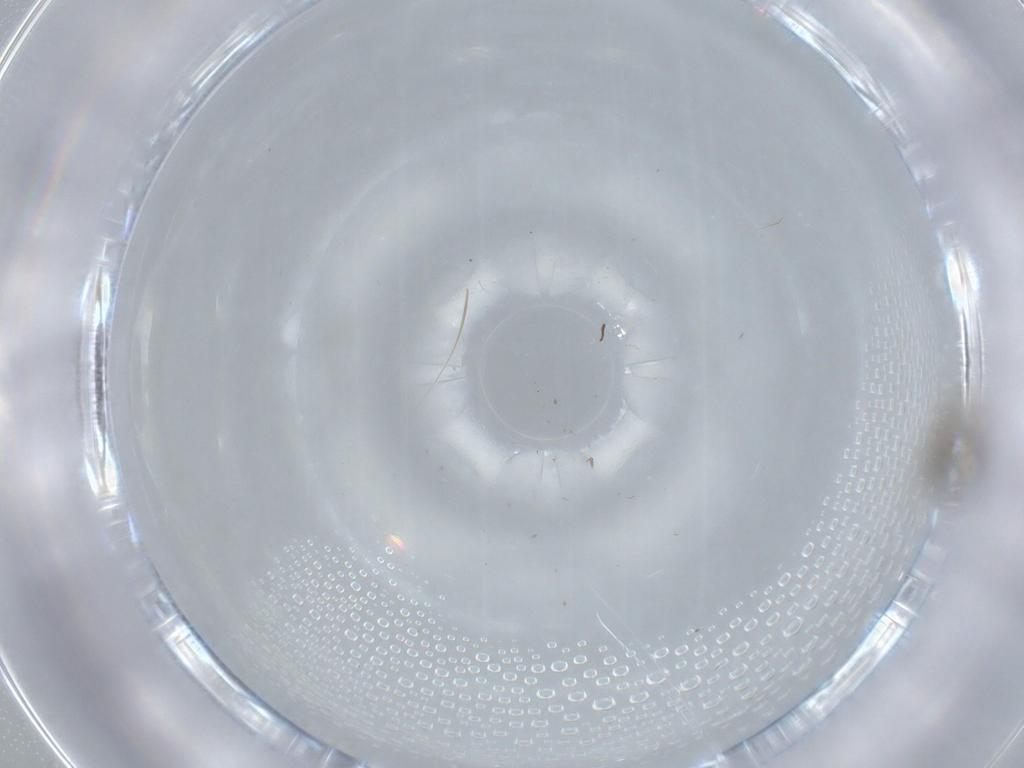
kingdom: Animalia
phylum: Arthropoda
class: Insecta
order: Diptera
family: Cecidomyiidae
